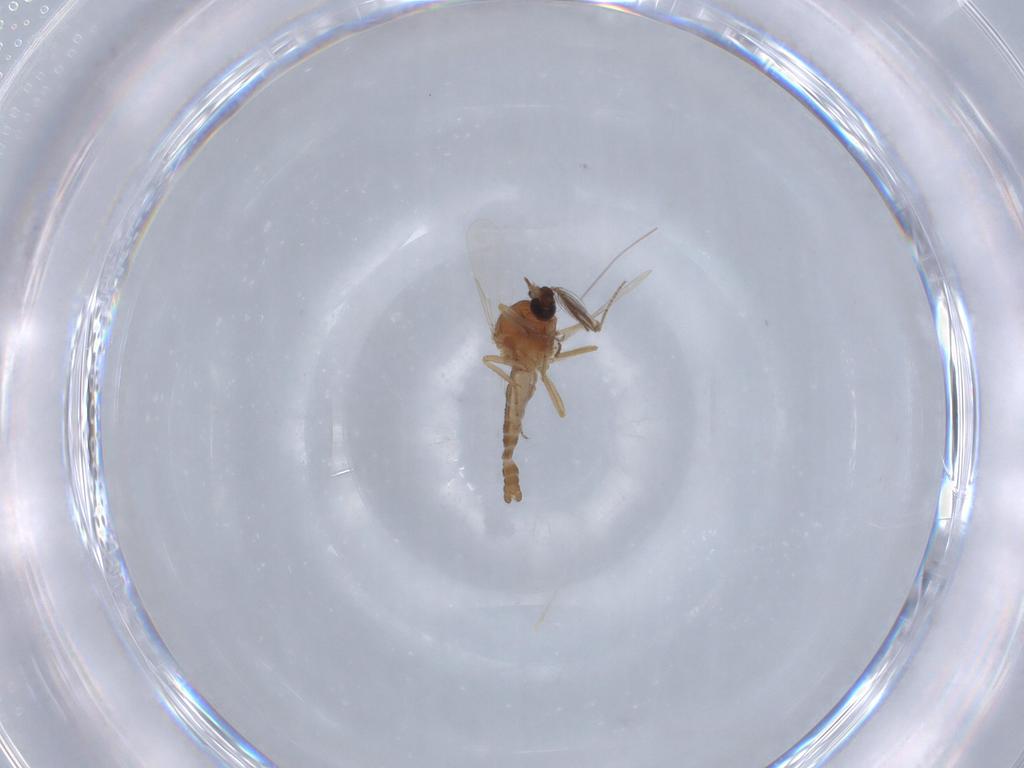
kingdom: Animalia
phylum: Arthropoda
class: Insecta
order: Diptera
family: Ceratopogonidae
